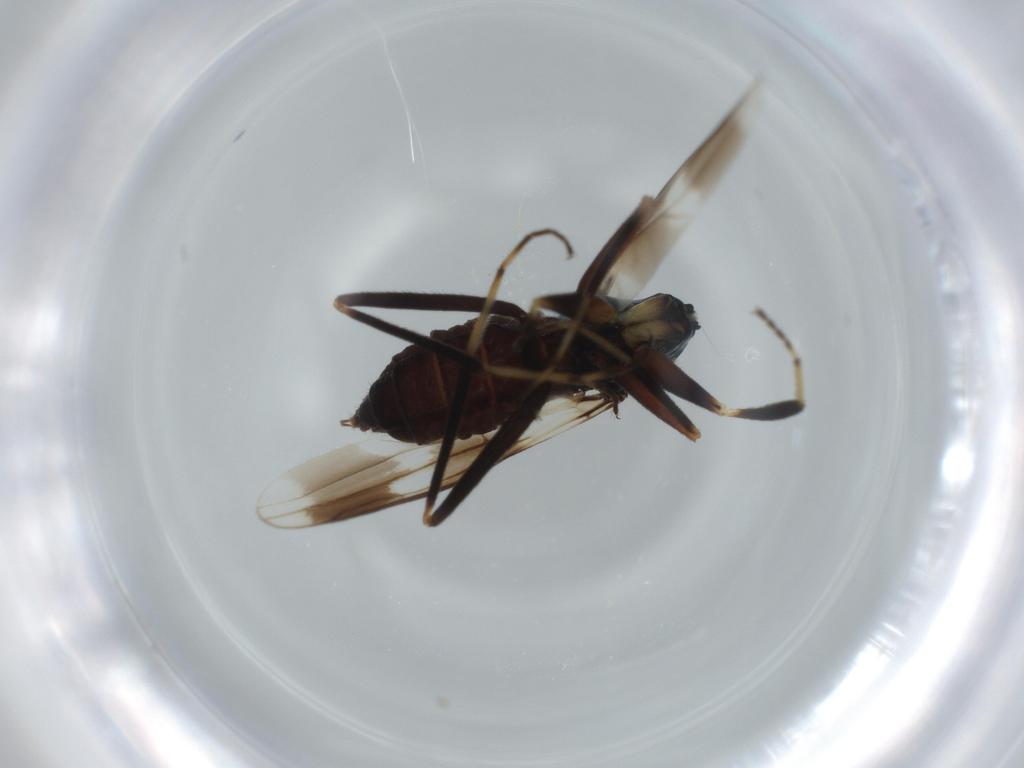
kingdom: Animalia
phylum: Arthropoda
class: Insecta
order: Diptera
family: Hybotidae
